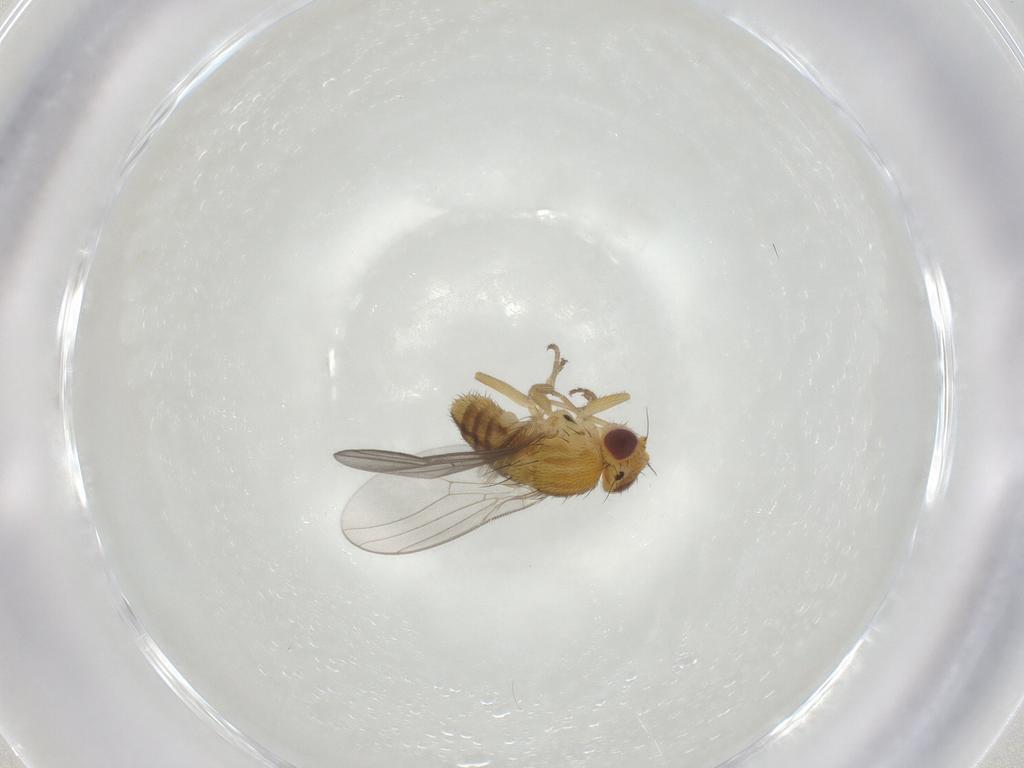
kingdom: Animalia
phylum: Arthropoda
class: Insecta
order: Diptera
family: Chloropidae
